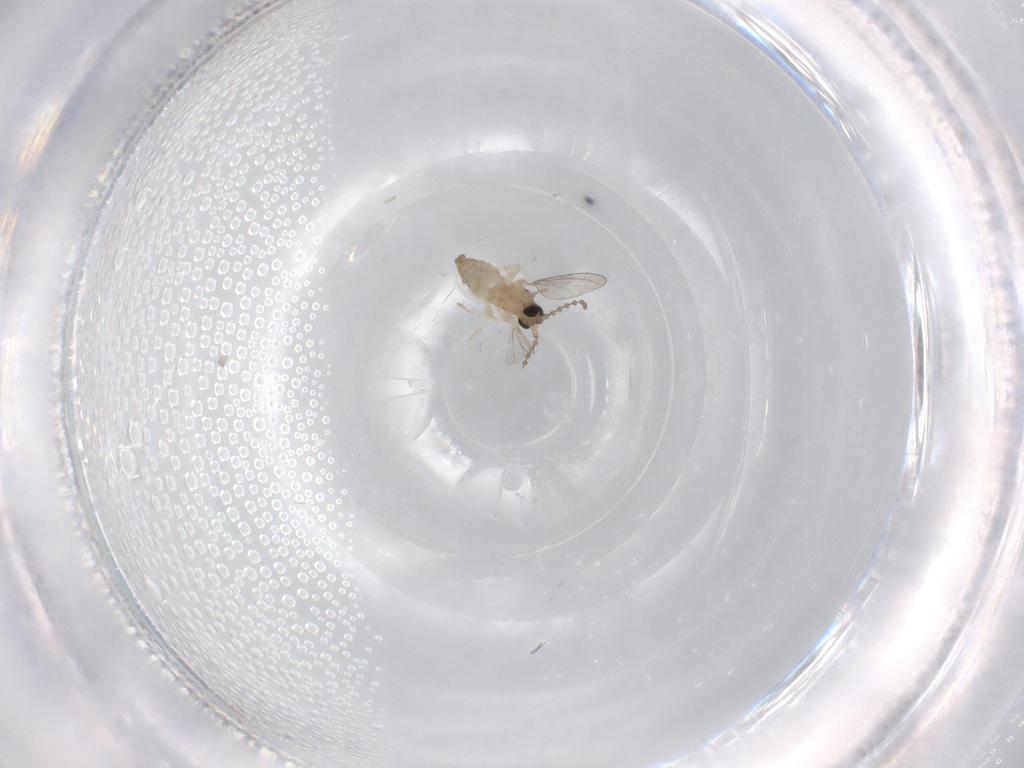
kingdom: Animalia
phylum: Arthropoda
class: Insecta
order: Diptera
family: Cecidomyiidae
